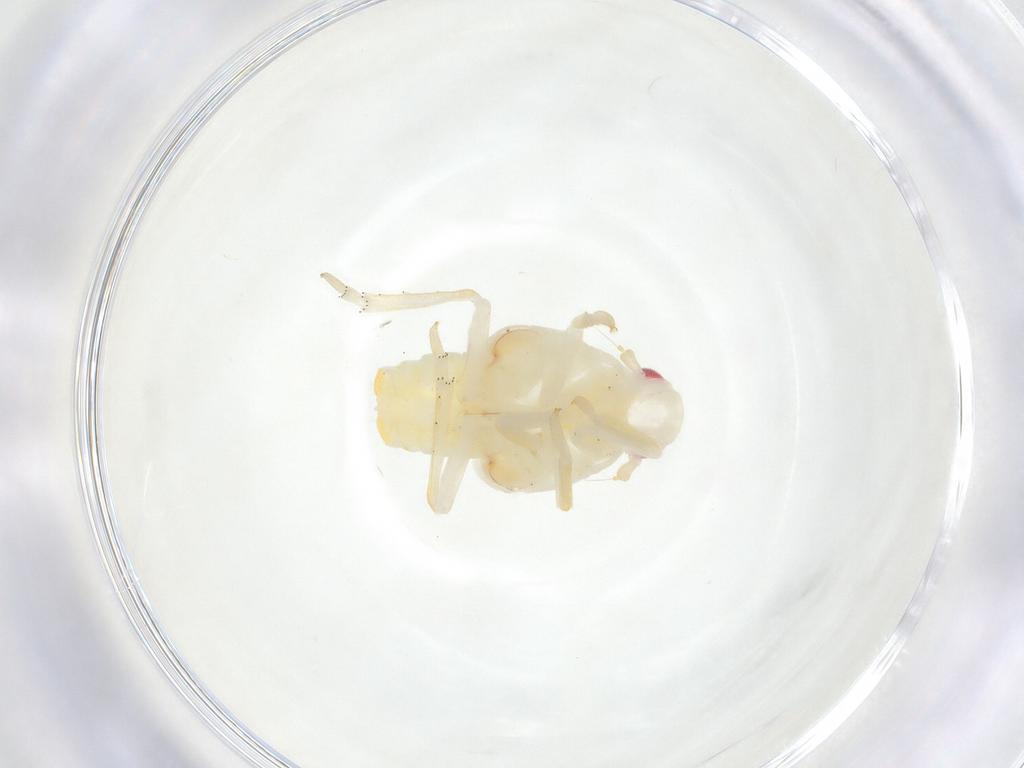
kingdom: Animalia
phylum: Arthropoda
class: Insecta
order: Hemiptera
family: Flatidae
